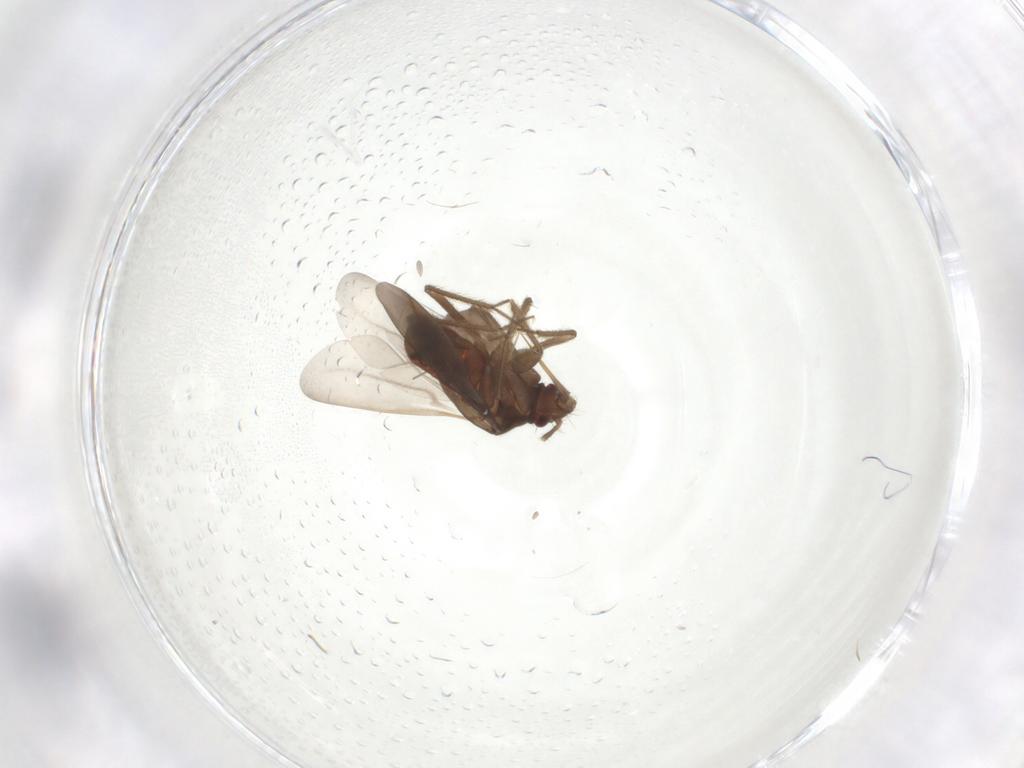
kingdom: Animalia
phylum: Arthropoda
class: Insecta
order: Hemiptera
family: Ceratocombidae
